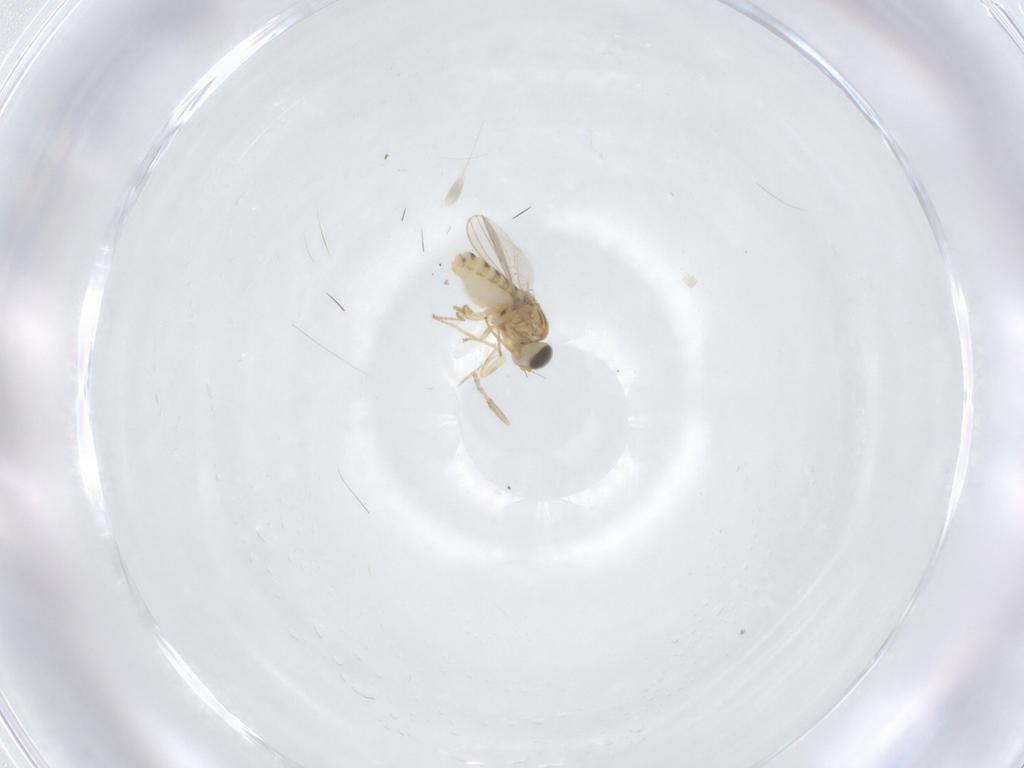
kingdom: Animalia
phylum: Arthropoda
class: Insecta
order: Diptera
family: Chyromyidae
